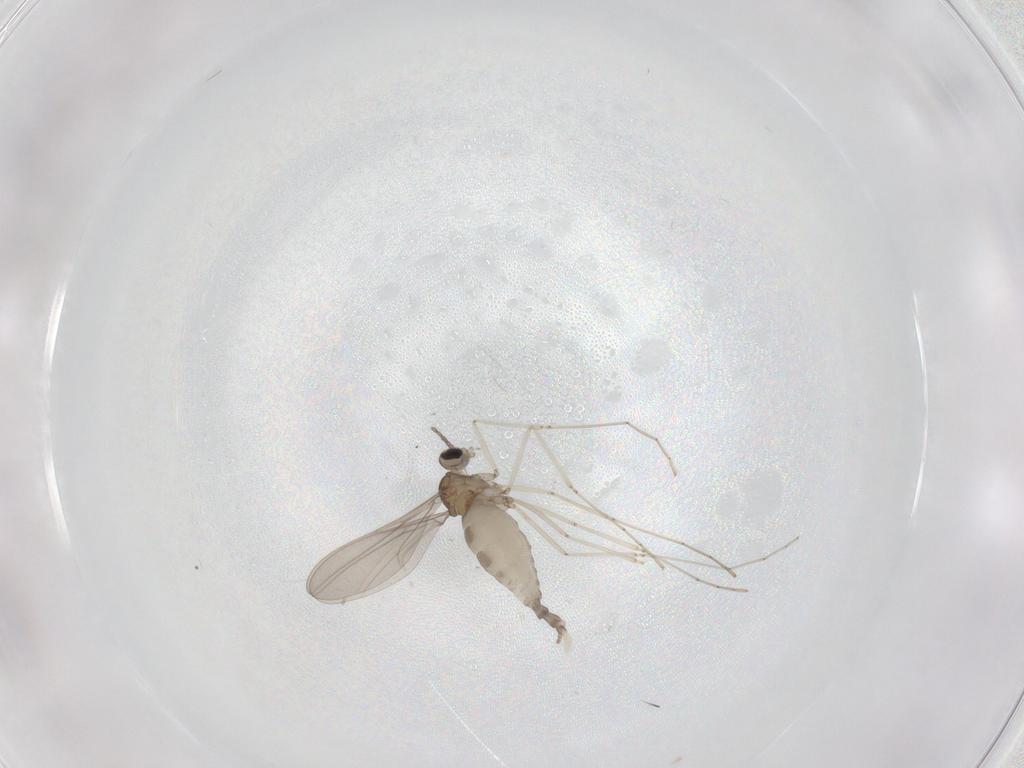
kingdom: Animalia
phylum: Arthropoda
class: Insecta
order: Diptera
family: Cecidomyiidae
